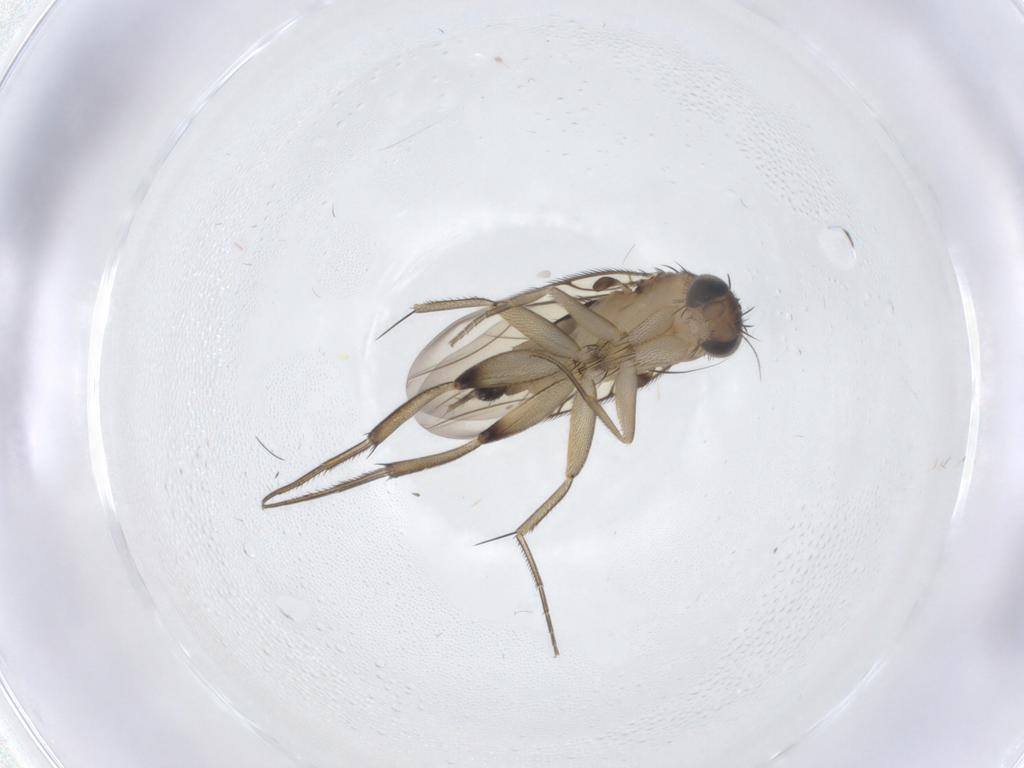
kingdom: Animalia
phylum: Arthropoda
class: Insecta
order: Diptera
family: Phoridae
